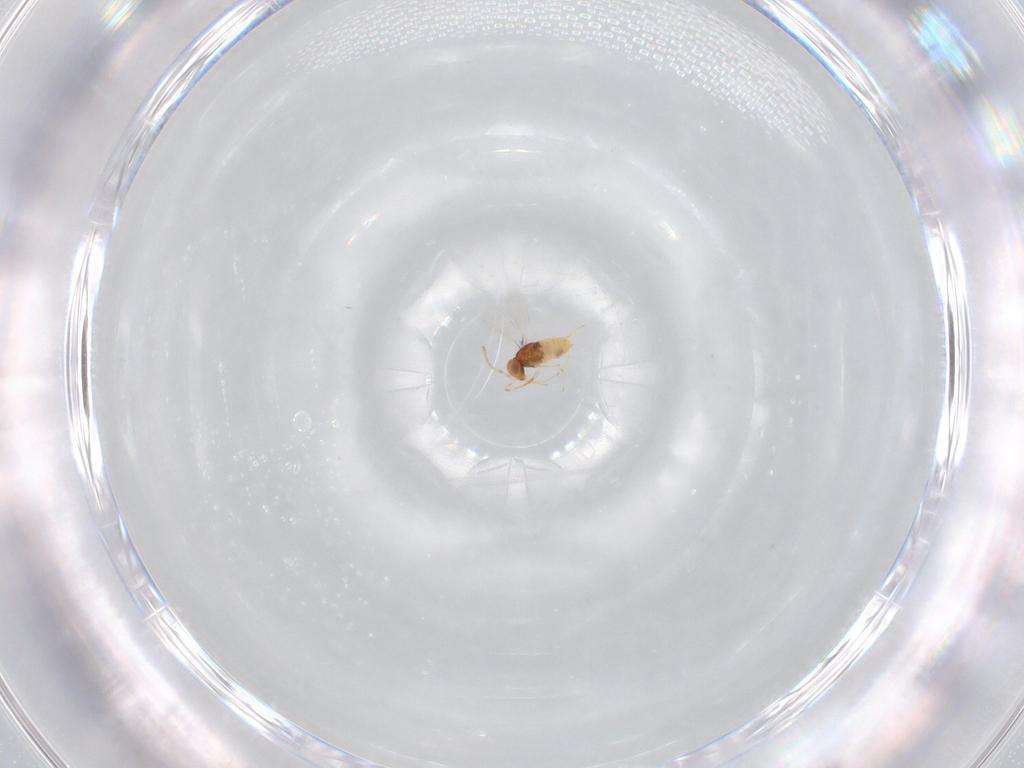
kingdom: Animalia
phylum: Arthropoda
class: Insecta
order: Hymenoptera
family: Aphelinidae
